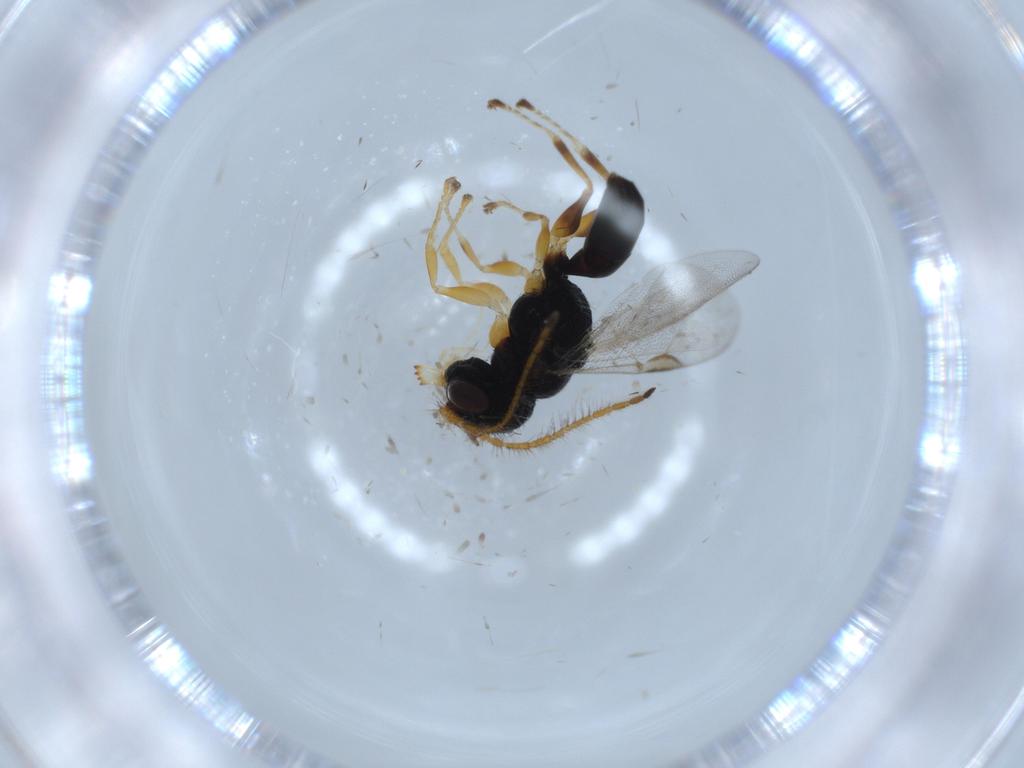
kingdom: Animalia
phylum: Arthropoda
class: Insecta
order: Hymenoptera
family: Dryinidae
